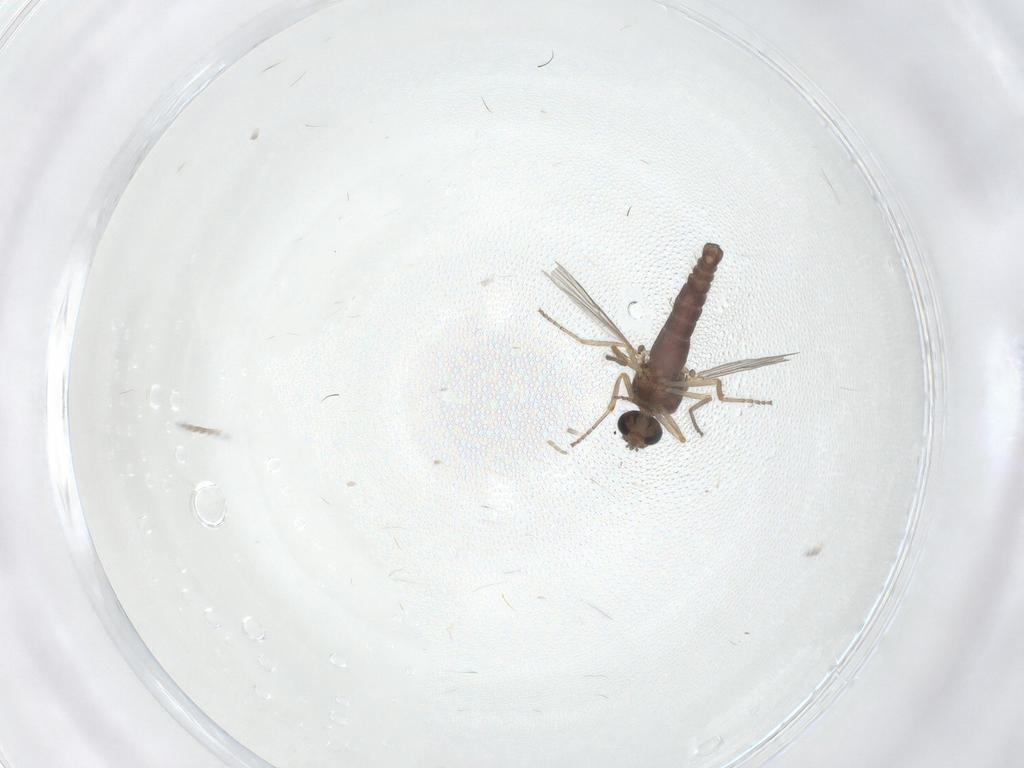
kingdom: Animalia
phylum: Arthropoda
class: Insecta
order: Diptera
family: Ceratopogonidae
